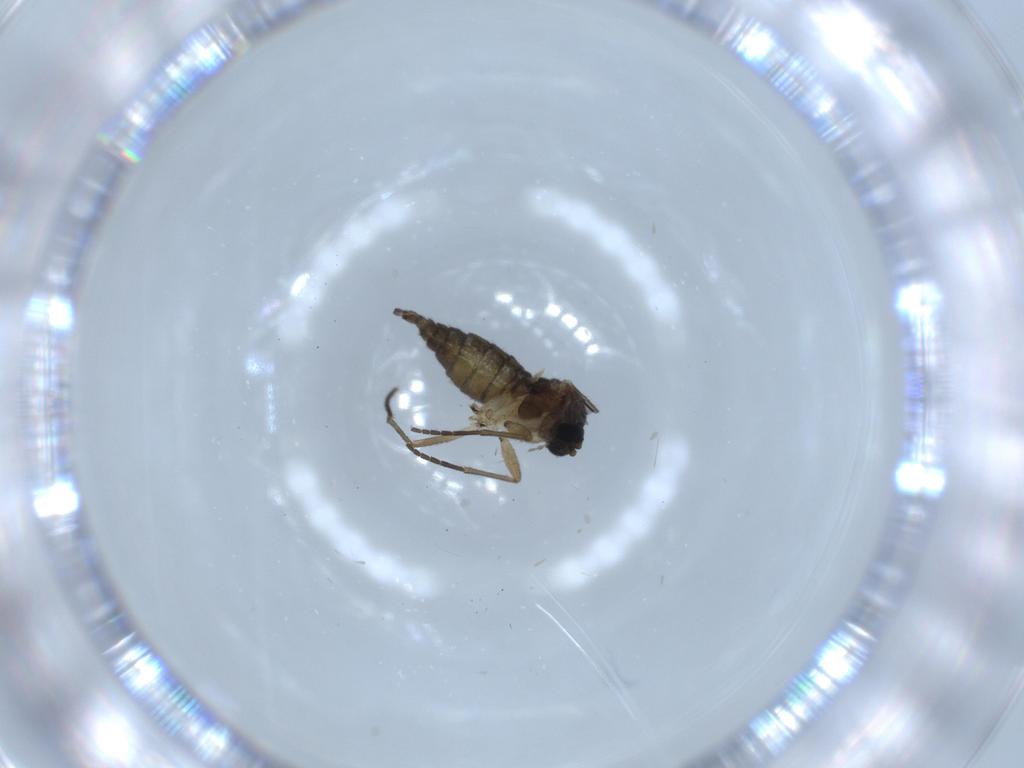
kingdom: Animalia
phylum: Arthropoda
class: Insecta
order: Diptera
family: Sciaridae
